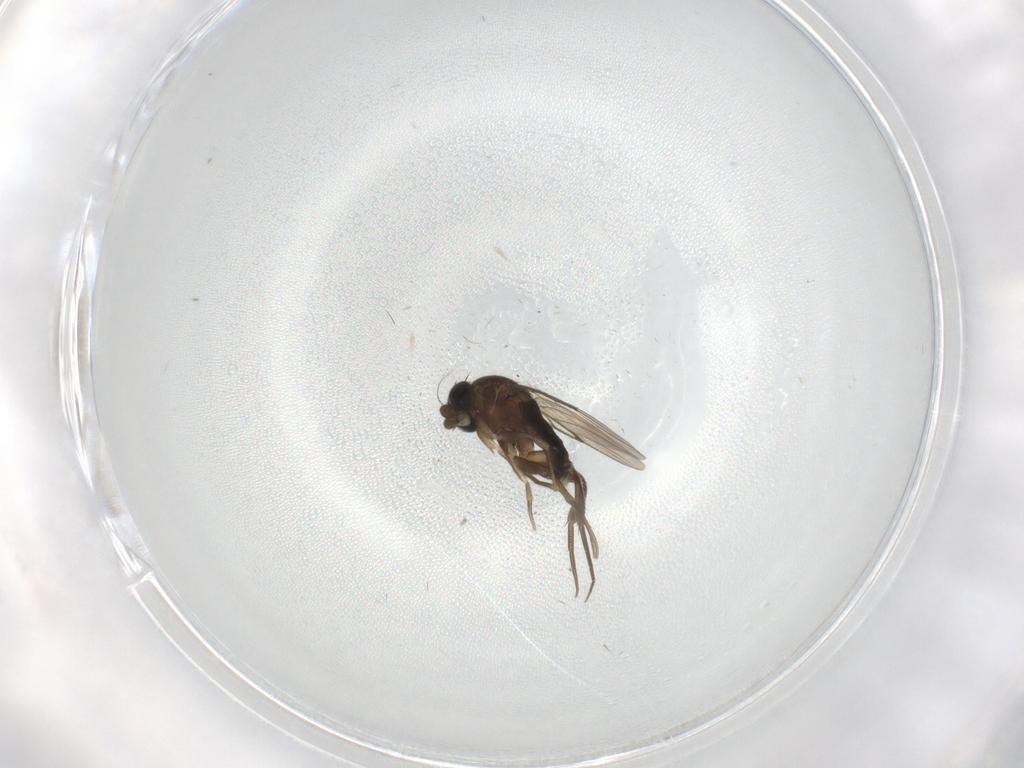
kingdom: Animalia
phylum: Arthropoda
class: Insecta
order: Diptera
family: Phoridae
